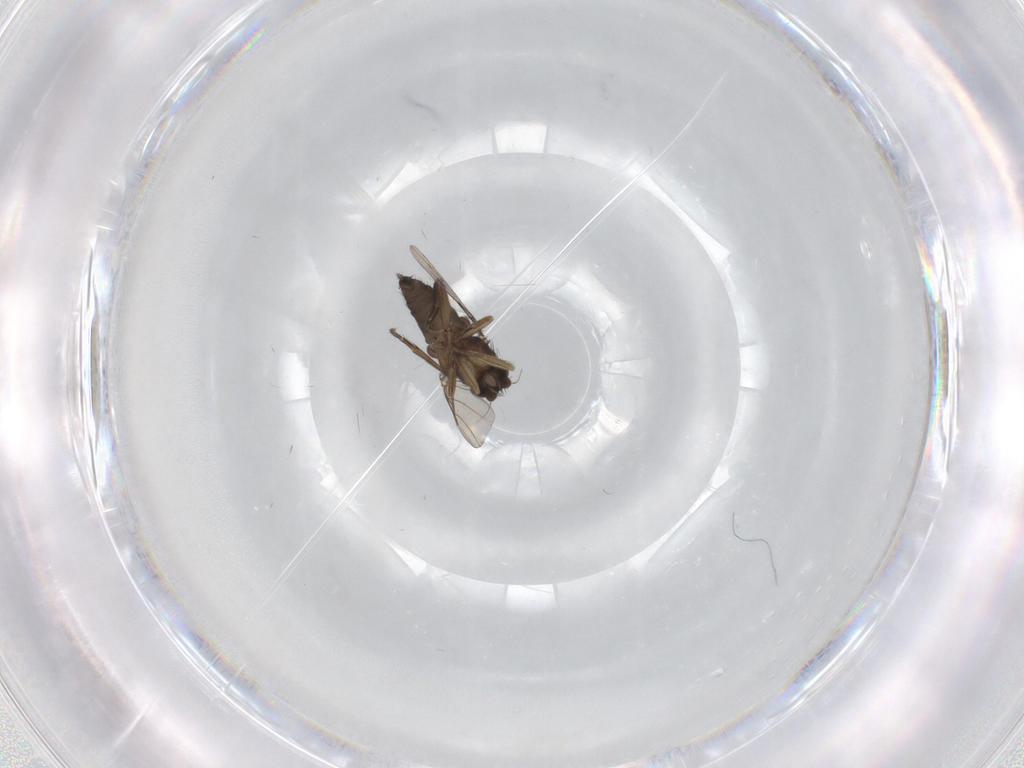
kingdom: Animalia
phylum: Arthropoda
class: Insecta
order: Diptera
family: Phoridae
